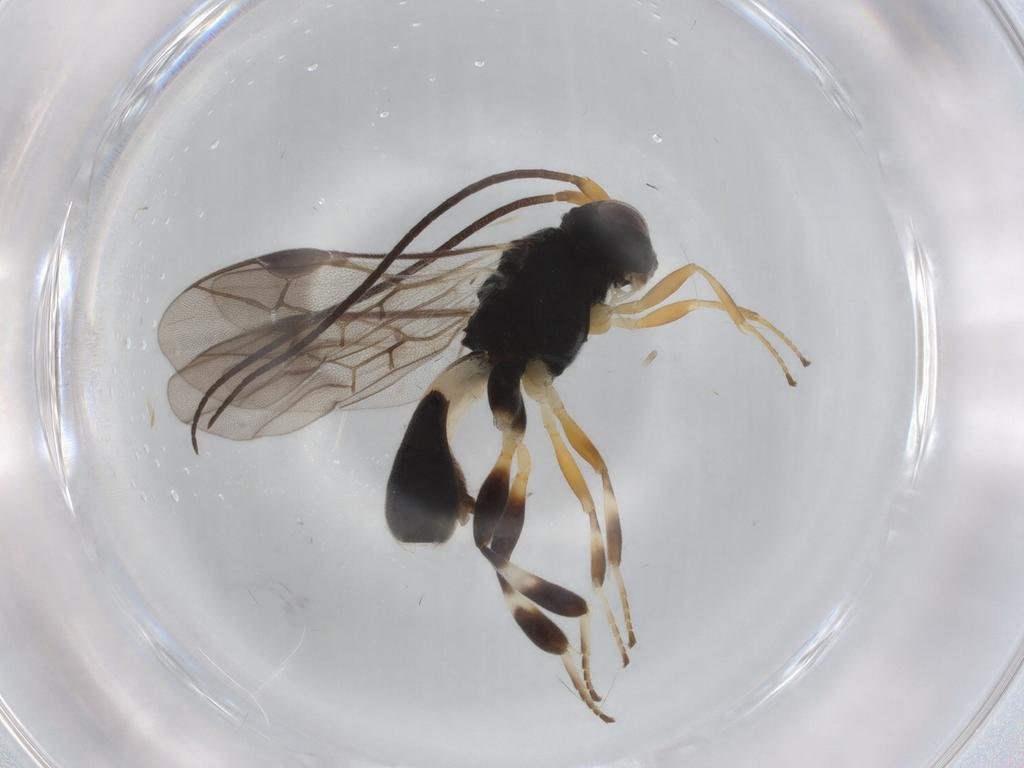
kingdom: Animalia
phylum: Arthropoda
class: Insecta
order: Hymenoptera
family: Braconidae
